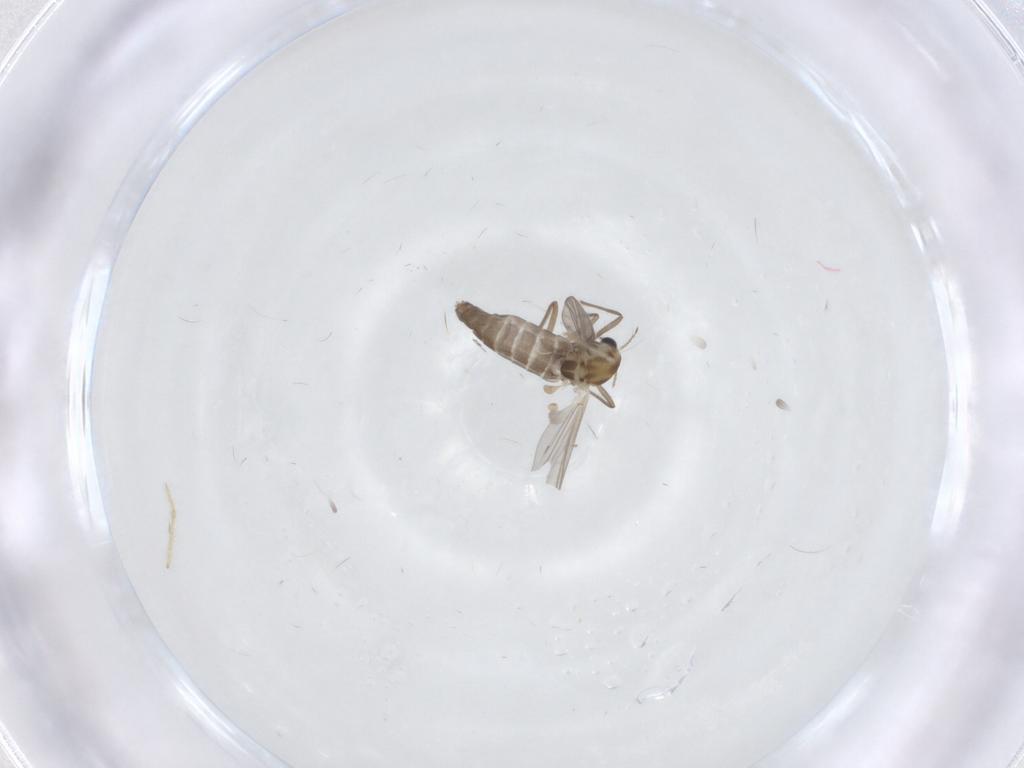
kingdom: Animalia
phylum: Arthropoda
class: Insecta
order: Diptera
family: Chironomidae
